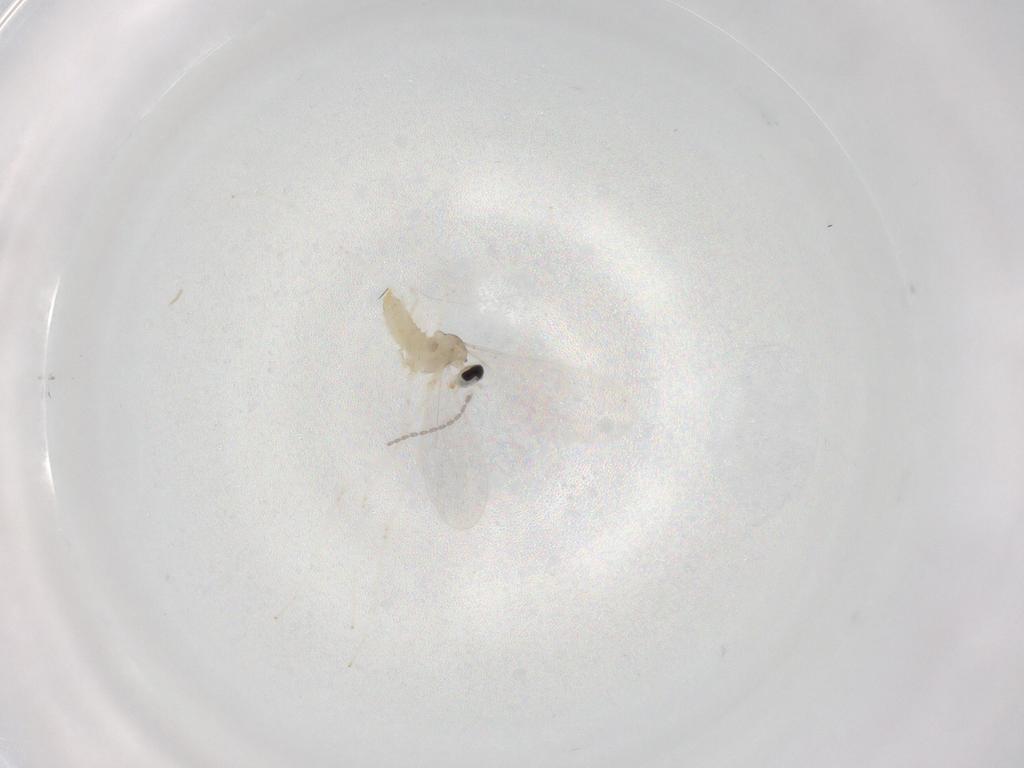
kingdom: Animalia
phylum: Arthropoda
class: Insecta
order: Diptera
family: Cecidomyiidae
